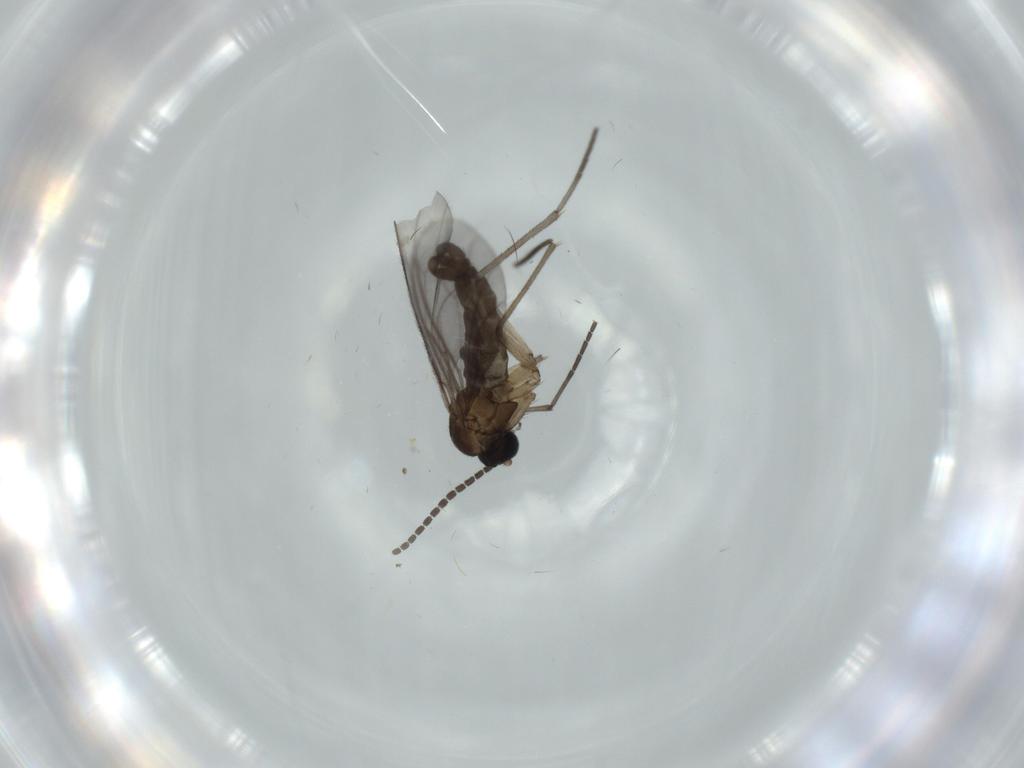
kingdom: Animalia
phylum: Arthropoda
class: Insecta
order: Diptera
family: Sciaridae
